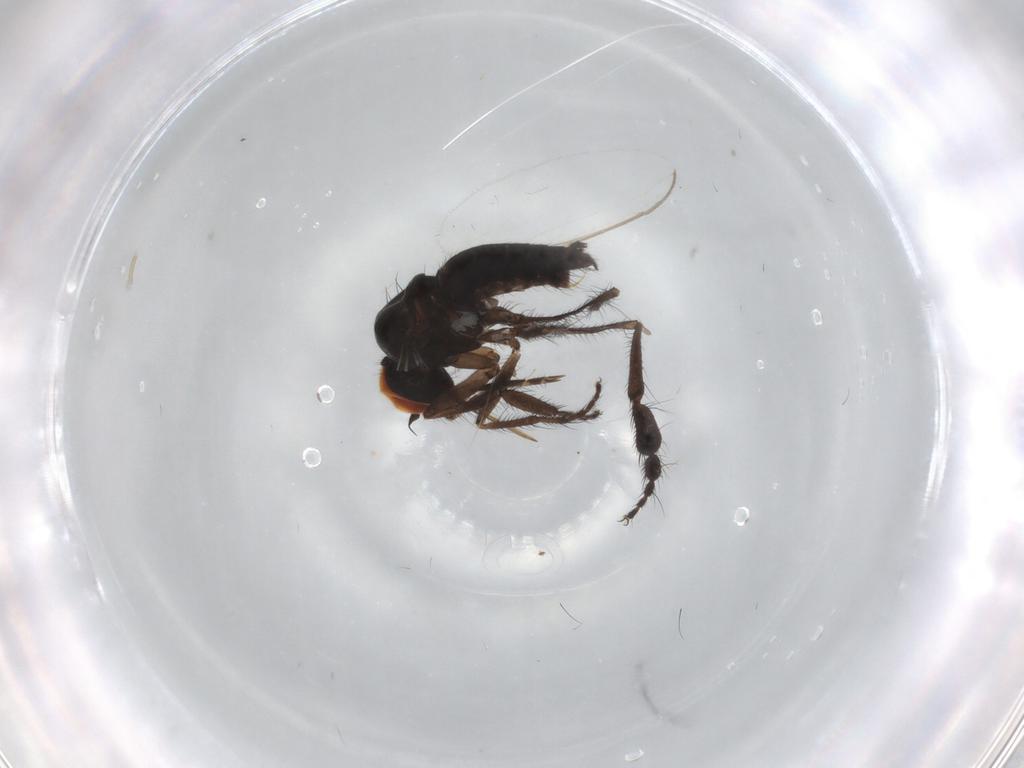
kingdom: Animalia
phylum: Arthropoda
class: Insecta
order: Diptera
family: Empididae
